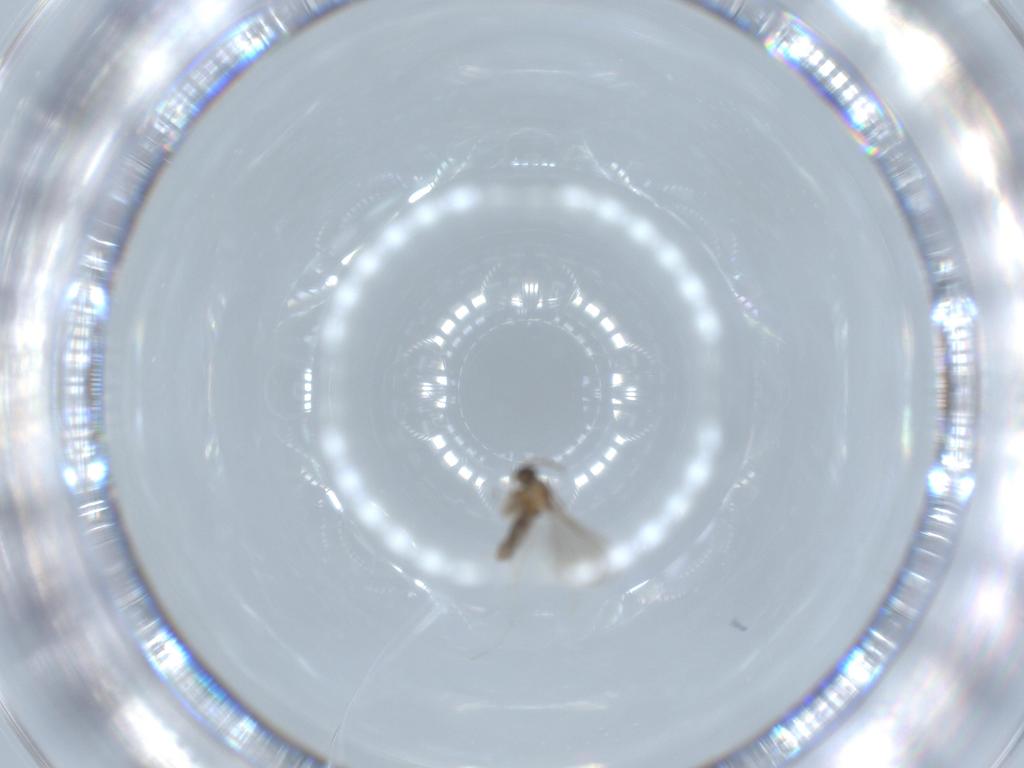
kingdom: Animalia
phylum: Arthropoda
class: Insecta
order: Diptera
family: Cecidomyiidae
